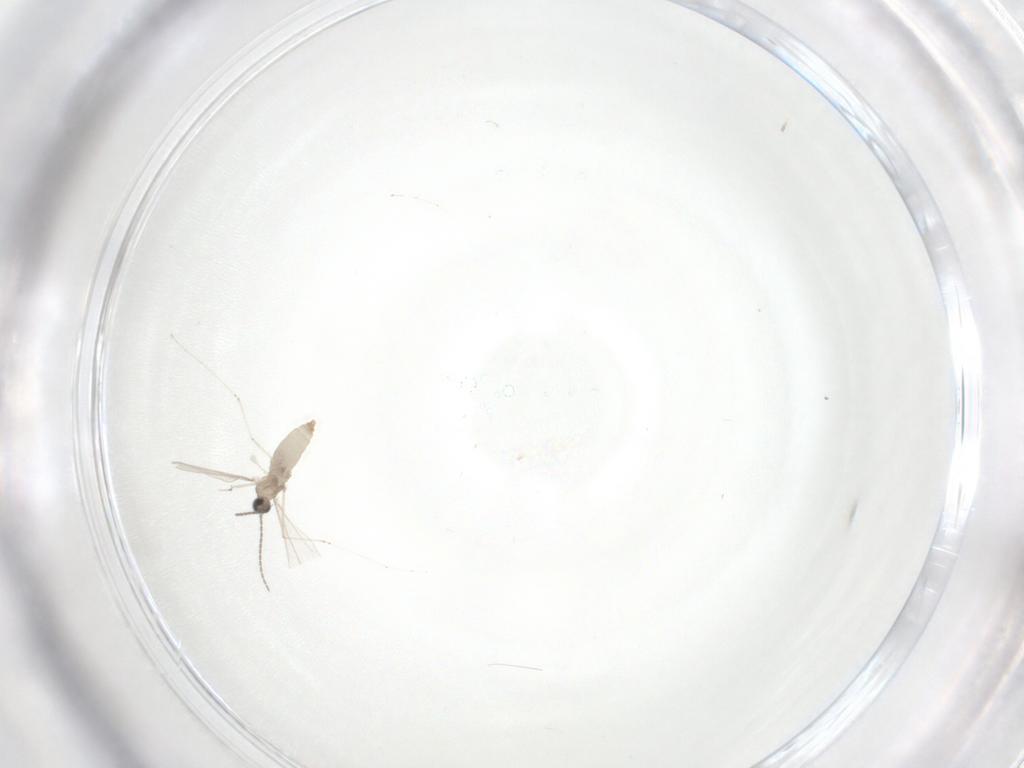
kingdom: Animalia
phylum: Arthropoda
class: Insecta
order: Diptera
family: Cecidomyiidae
